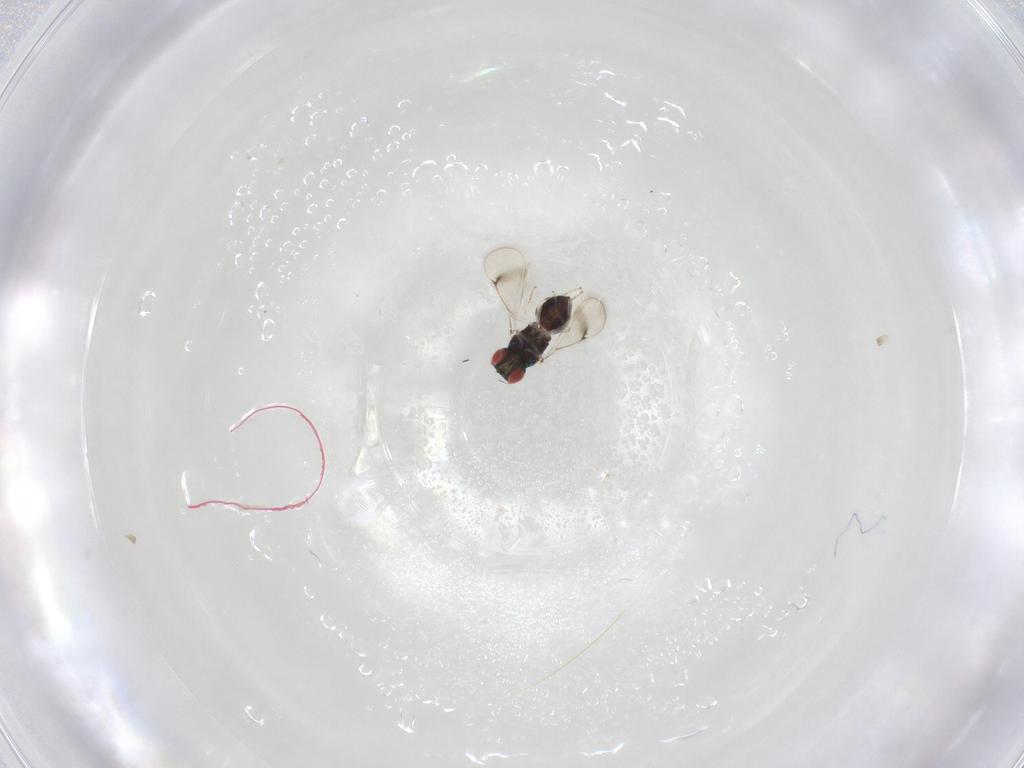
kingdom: Animalia
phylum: Arthropoda
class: Insecta
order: Hymenoptera
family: Eulophidae
